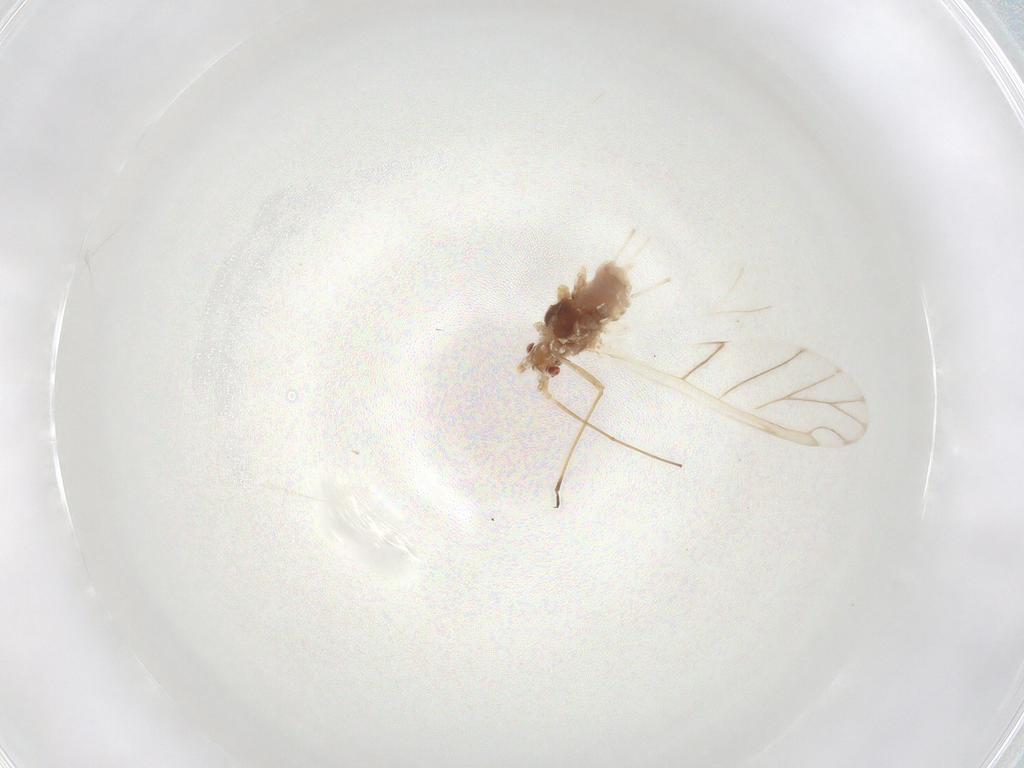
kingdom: Animalia
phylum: Arthropoda
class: Insecta
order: Hemiptera
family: Aphididae
